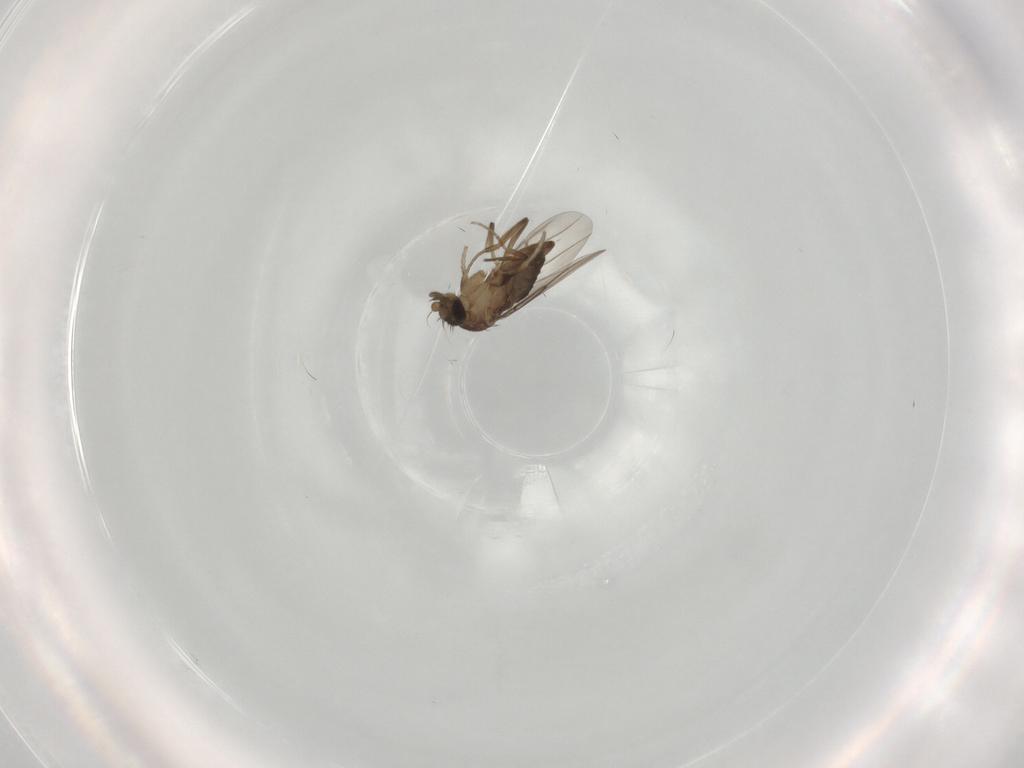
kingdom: Animalia
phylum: Arthropoda
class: Insecta
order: Diptera
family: Phoridae
